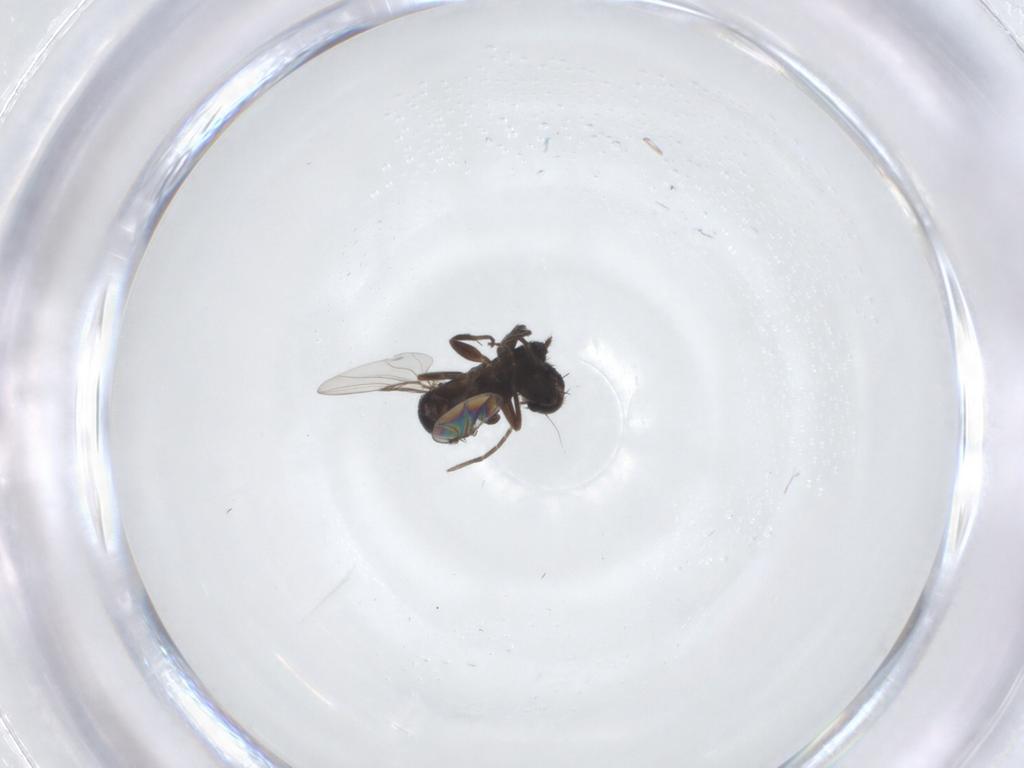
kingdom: Animalia
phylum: Arthropoda
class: Insecta
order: Diptera
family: Phoridae
